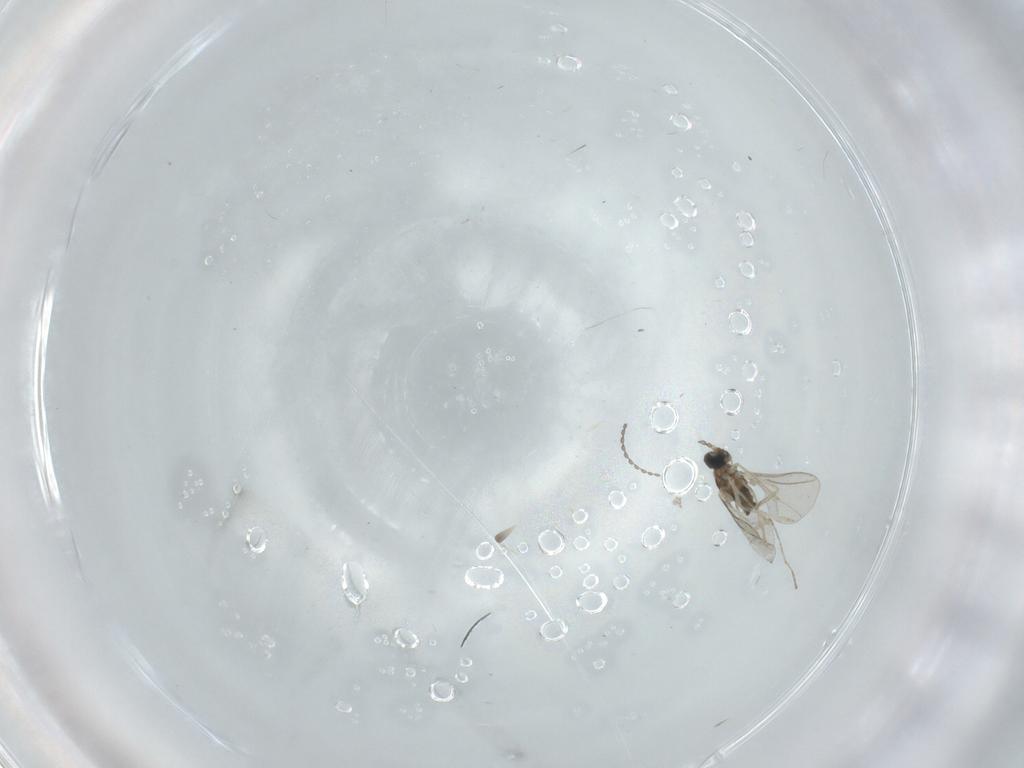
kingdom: Animalia
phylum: Arthropoda
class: Insecta
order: Diptera
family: Cecidomyiidae
